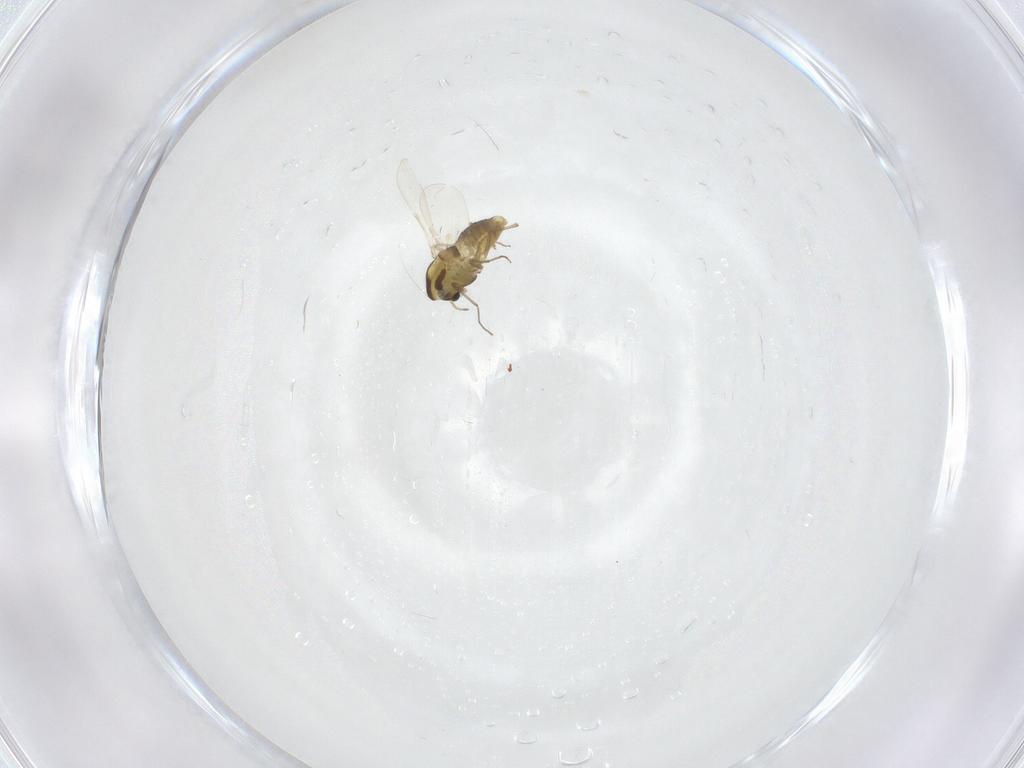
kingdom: Animalia
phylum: Arthropoda
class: Insecta
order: Diptera
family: Chironomidae
